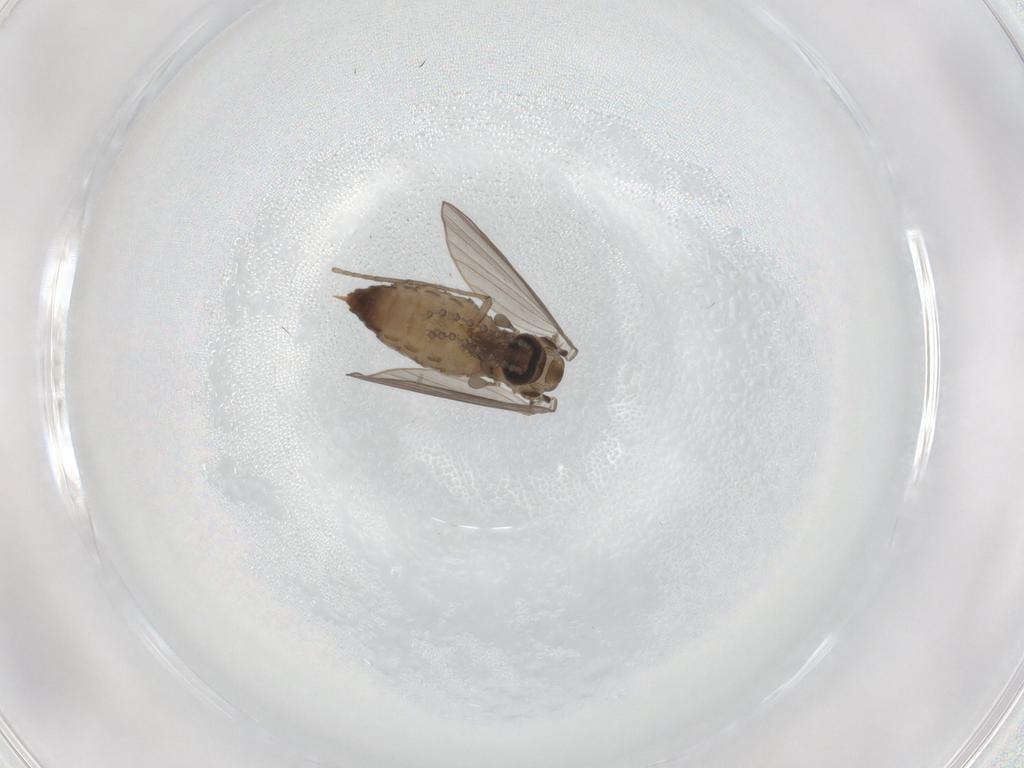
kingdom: Animalia
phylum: Arthropoda
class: Insecta
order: Diptera
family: Psychodidae
